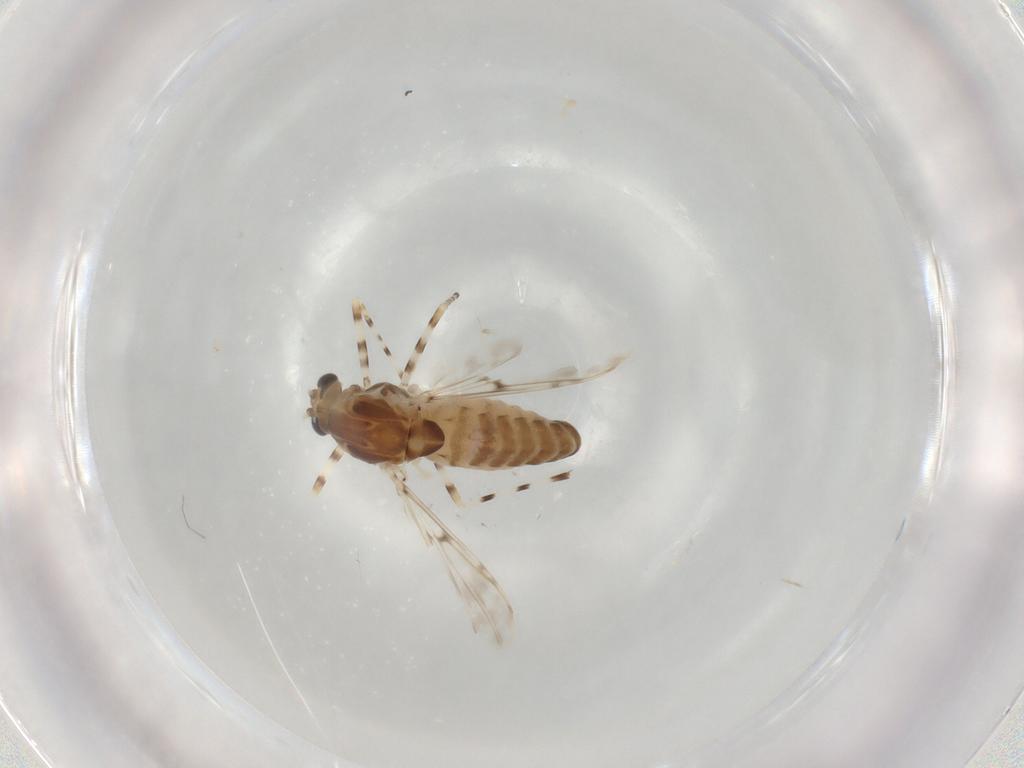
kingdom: Animalia
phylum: Arthropoda
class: Insecta
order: Diptera
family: Chironomidae
